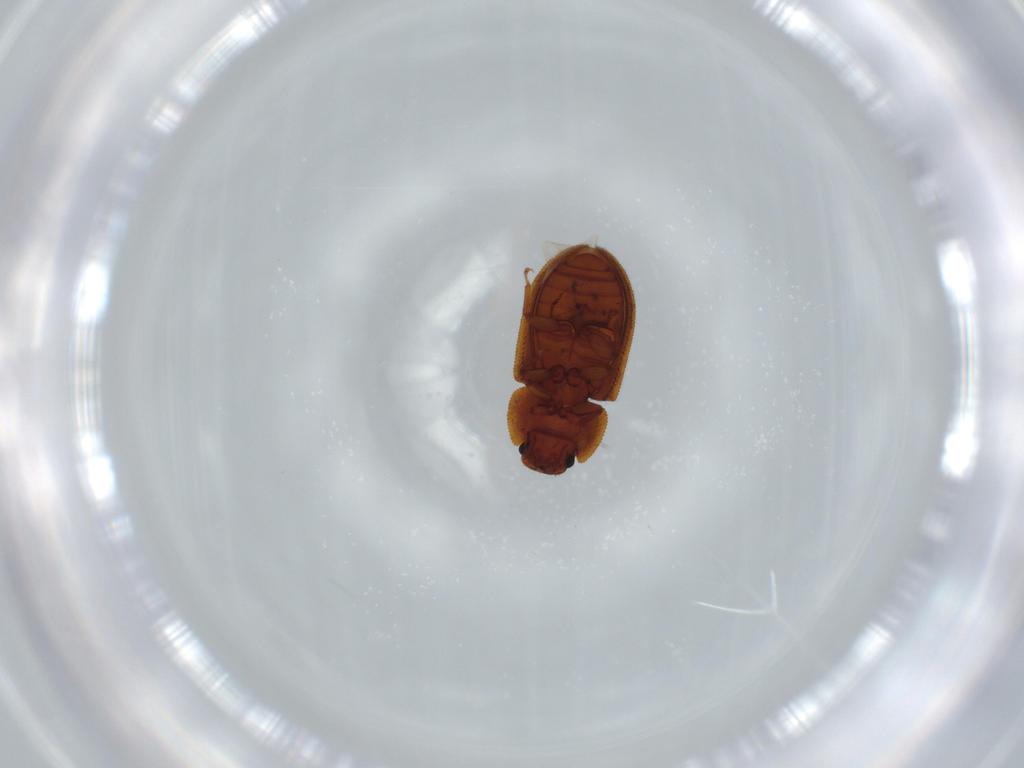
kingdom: Animalia
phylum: Arthropoda
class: Insecta
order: Coleoptera
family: Zopheridae
